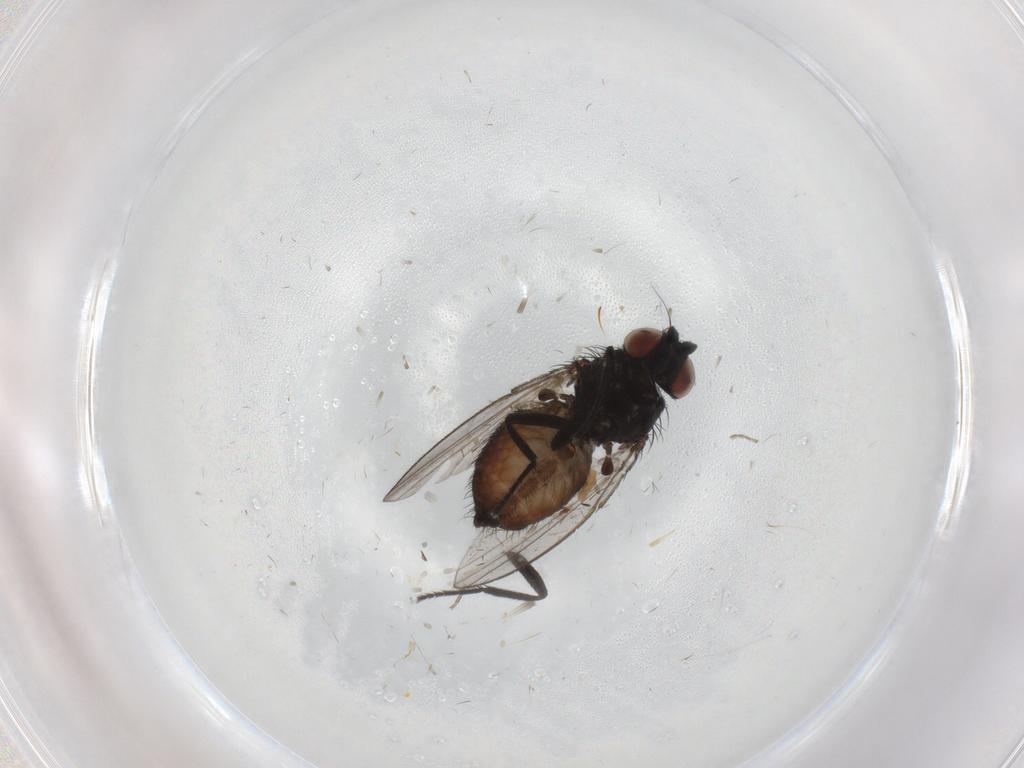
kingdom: Animalia
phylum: Arthropoda
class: Insecta
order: Diptera
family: Milichiidae
